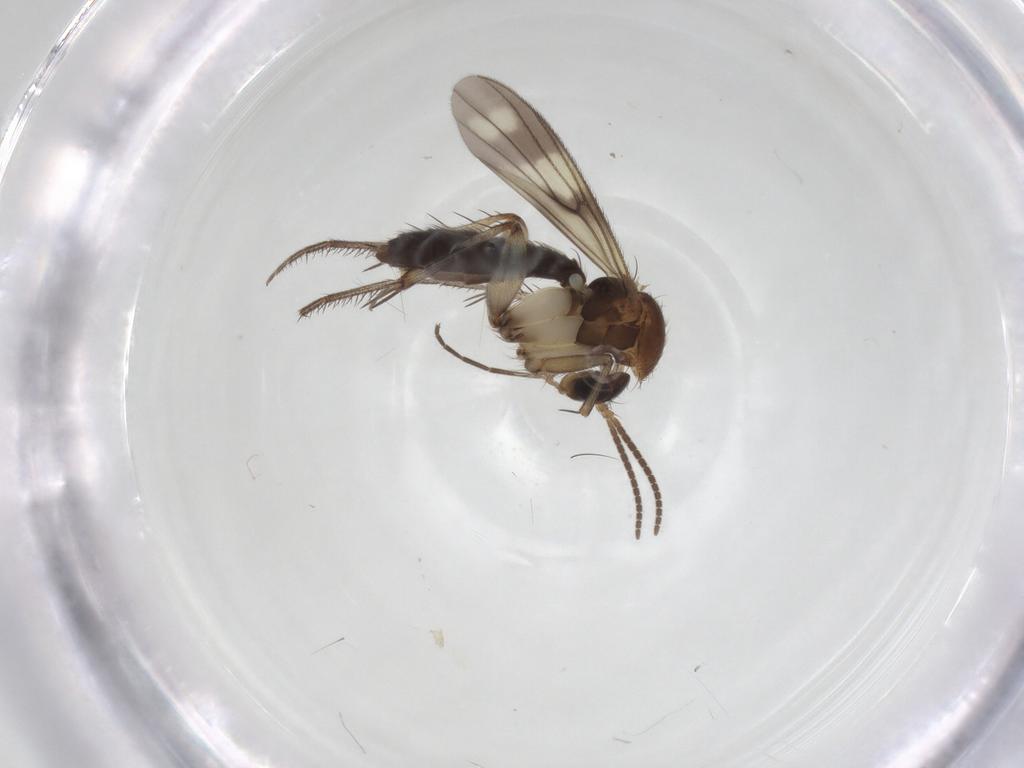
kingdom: Animalia
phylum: Arthropoda
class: Insecta
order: Diptera
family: Mycetophilidae
